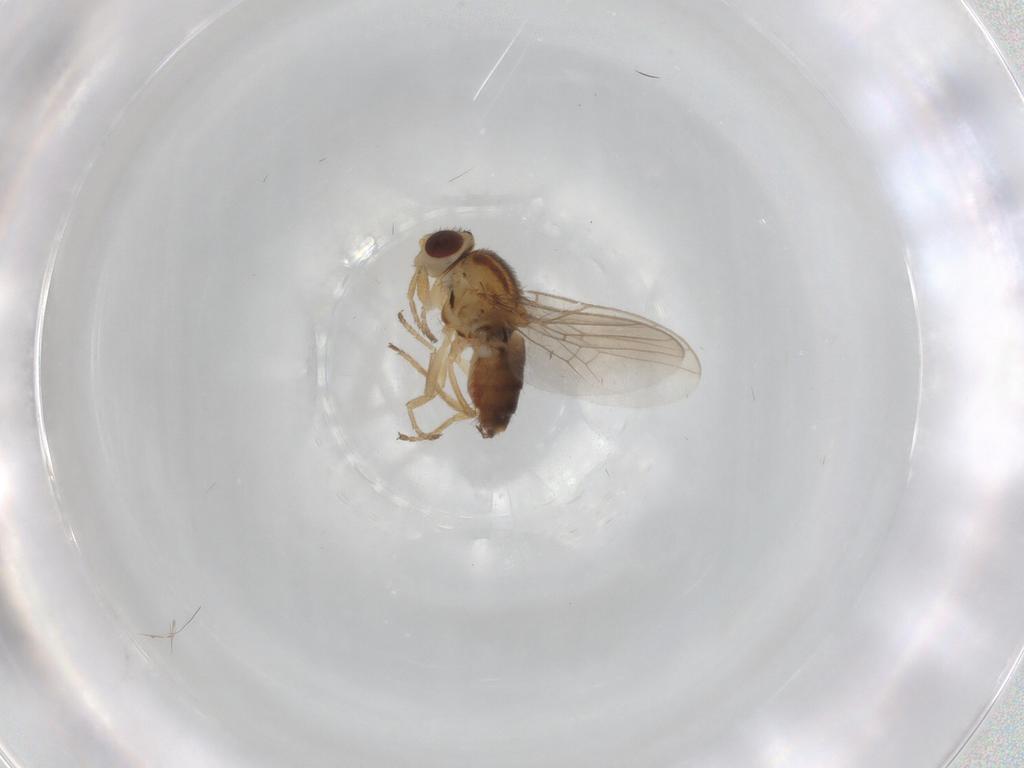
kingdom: Animalia
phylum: Arthropoda
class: Insecta
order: Diptera
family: Chloropidae
